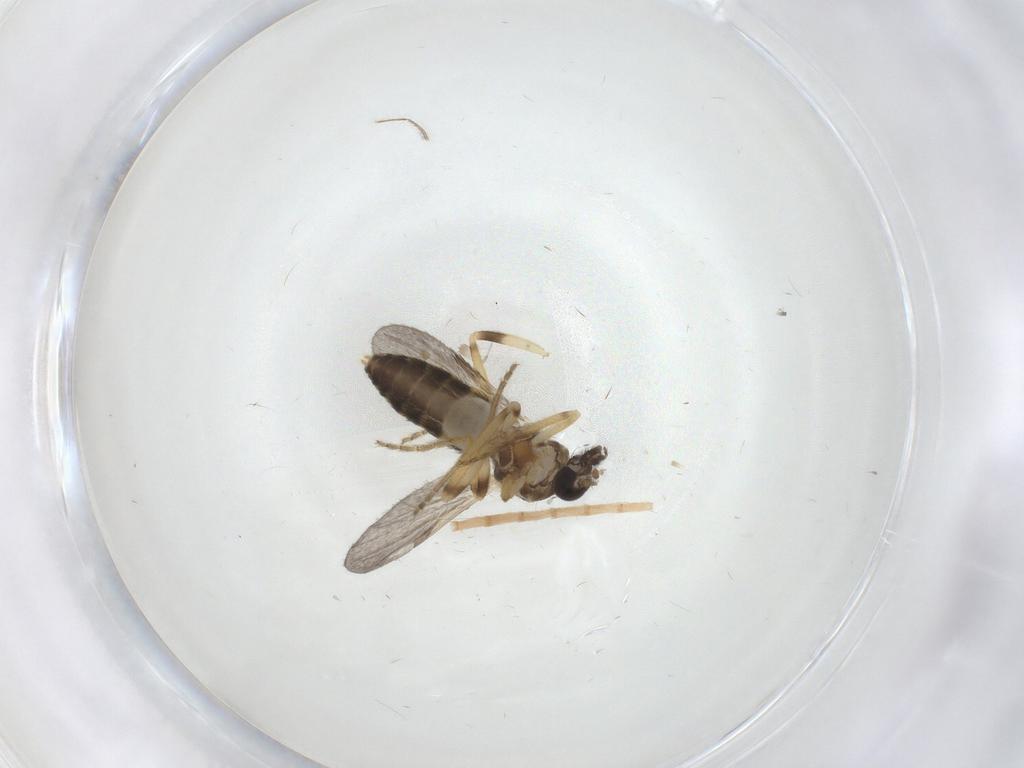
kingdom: Animalia
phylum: Arthropoda
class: Insecta
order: Diptera
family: Ceratopogonidae
